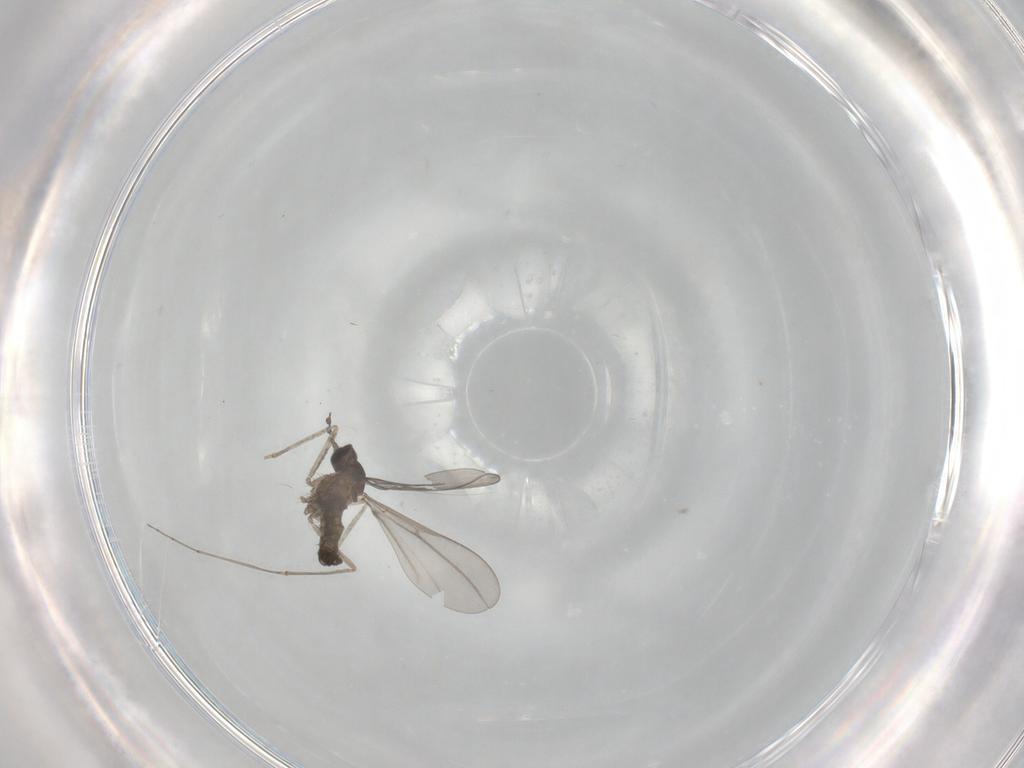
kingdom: Animalia
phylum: Arthropoda
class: Insecta
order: Diptera
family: Cecidomyiidae
